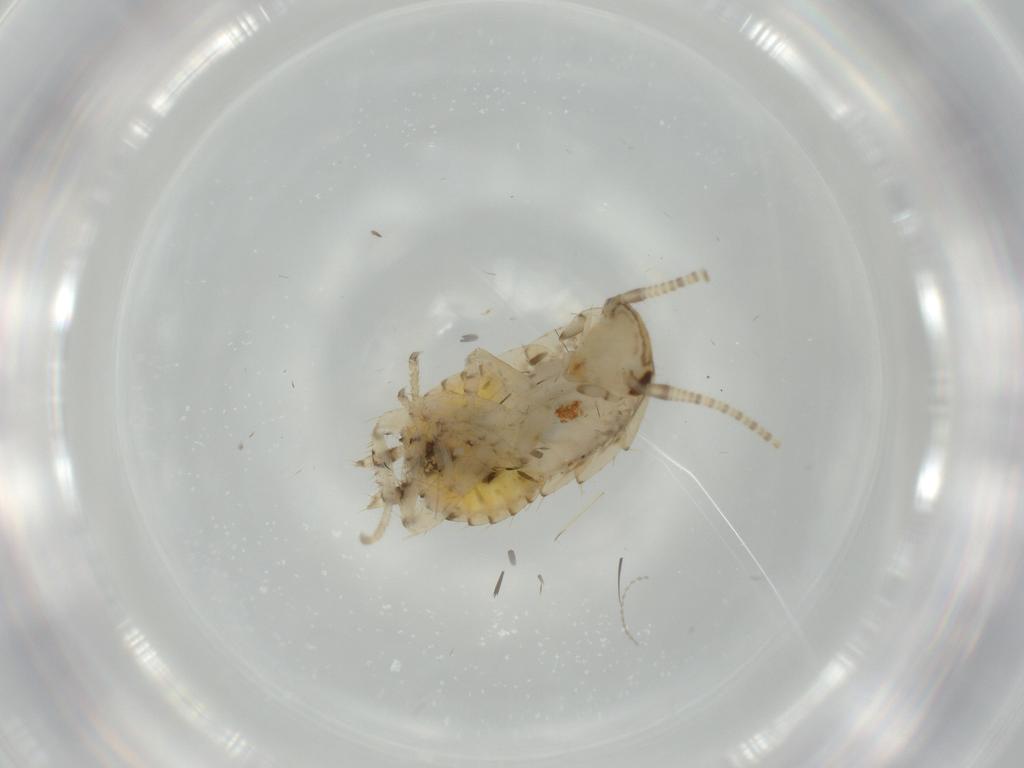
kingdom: Animalia
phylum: Arthropoda
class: Insecta
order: Blattodea
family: Ectobiidae
